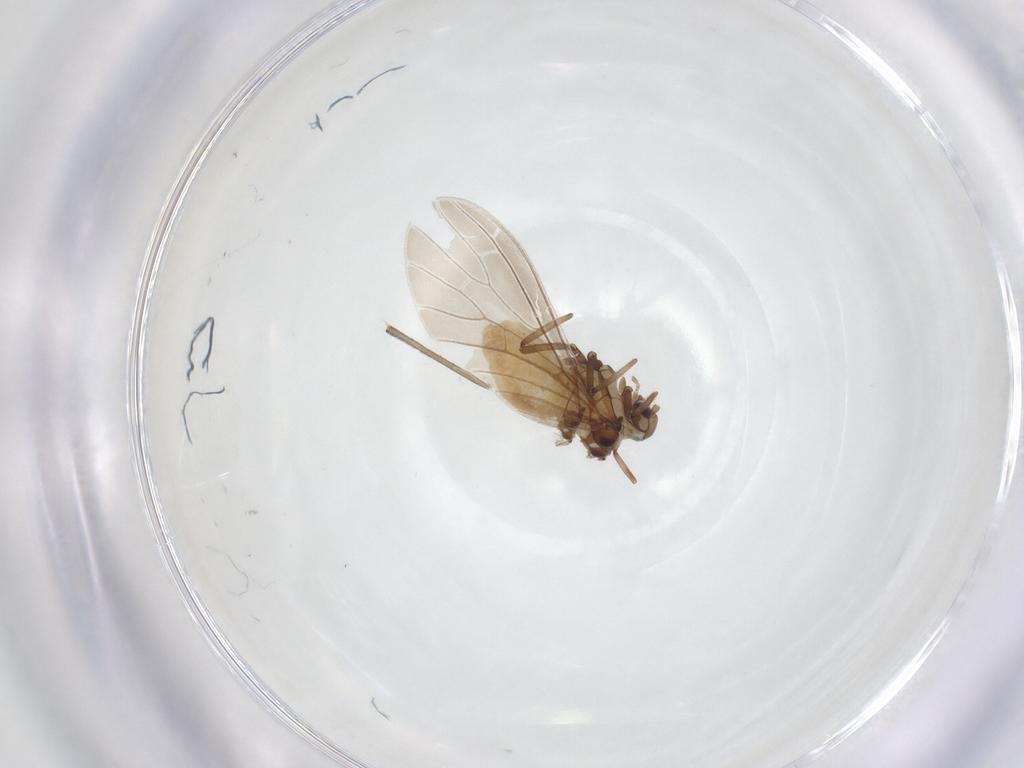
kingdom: Animalia
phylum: Arthropoda
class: Insecta
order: Neuroptera
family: Coniopterygidae
